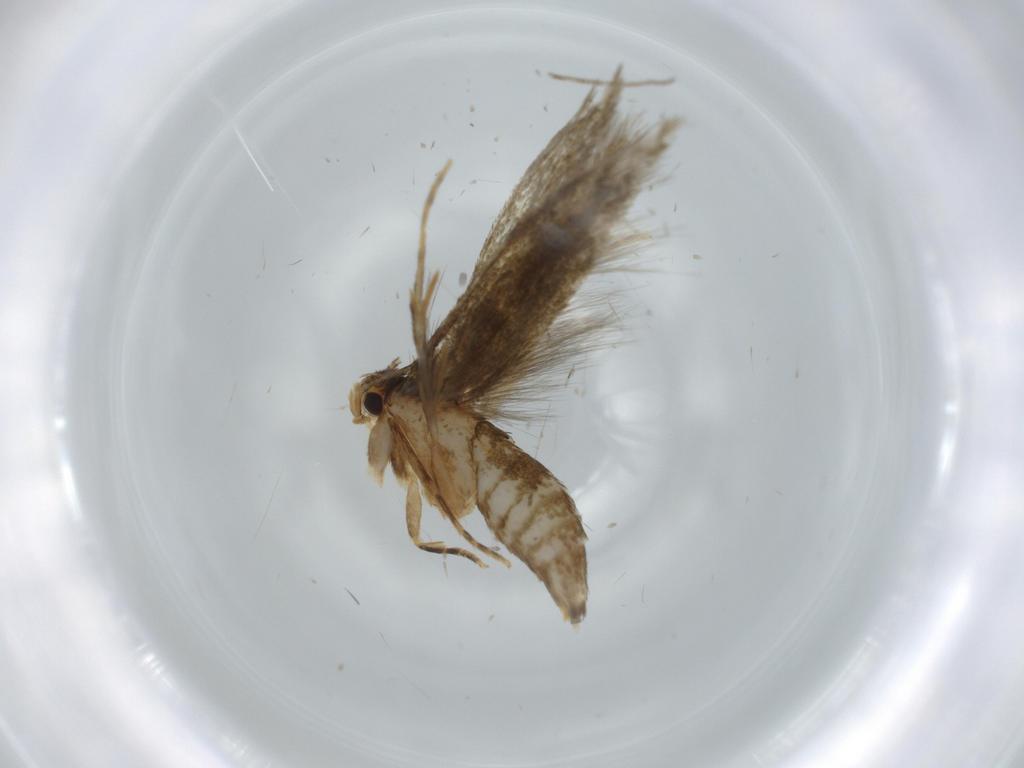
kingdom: Animalia
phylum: Arthropoda
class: Insecta
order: Lepidoptera
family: Tineidae
